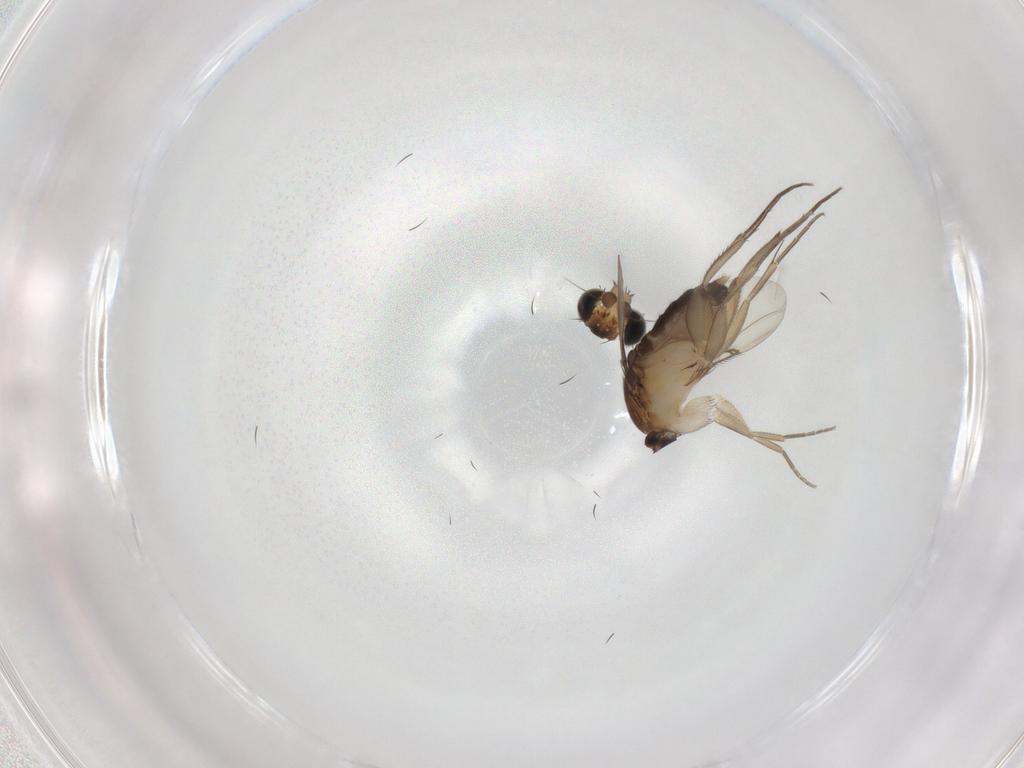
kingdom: Animalia
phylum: Arthropoda
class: Insecta
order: Diptera
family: Phoridae
